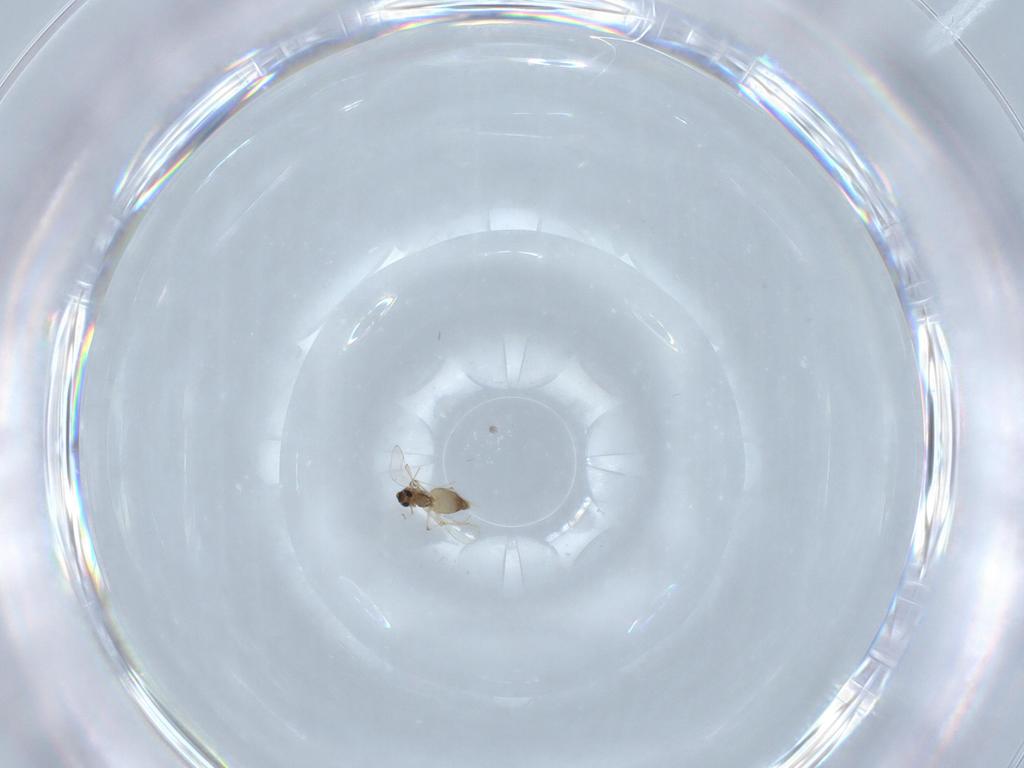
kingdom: Animalia
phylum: Arthropoda
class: Insecta
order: Diptera
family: Chironomidae
